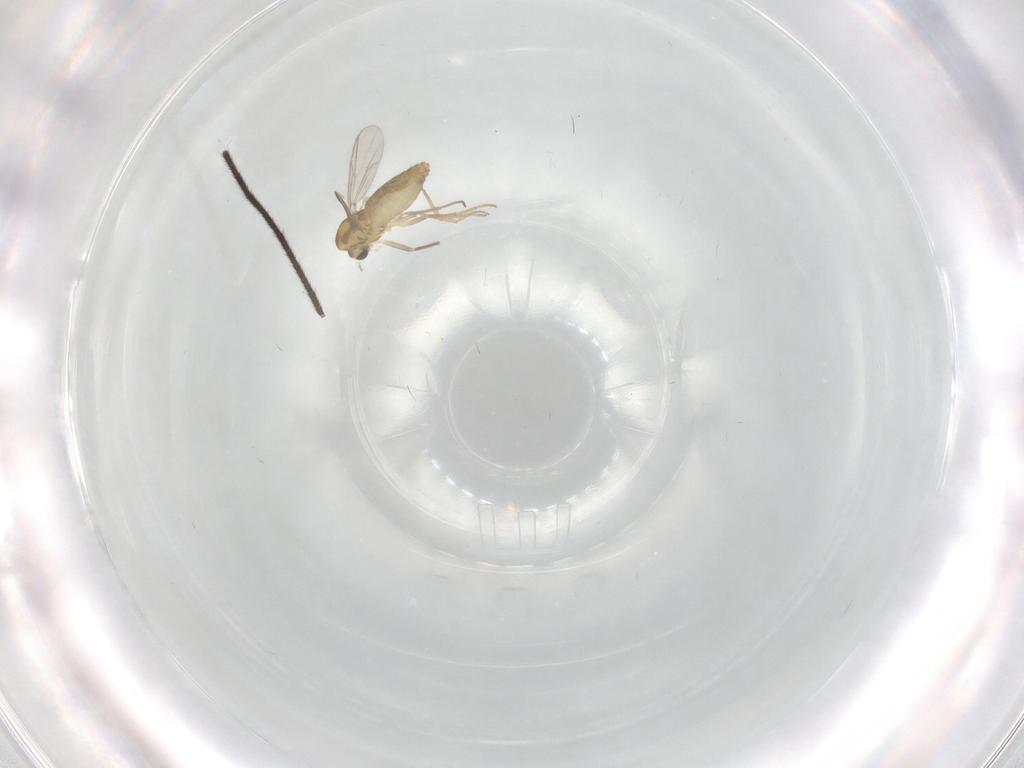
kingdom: Animalia
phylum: Arthropoda
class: Insecta
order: Diptera
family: Chironomidae
